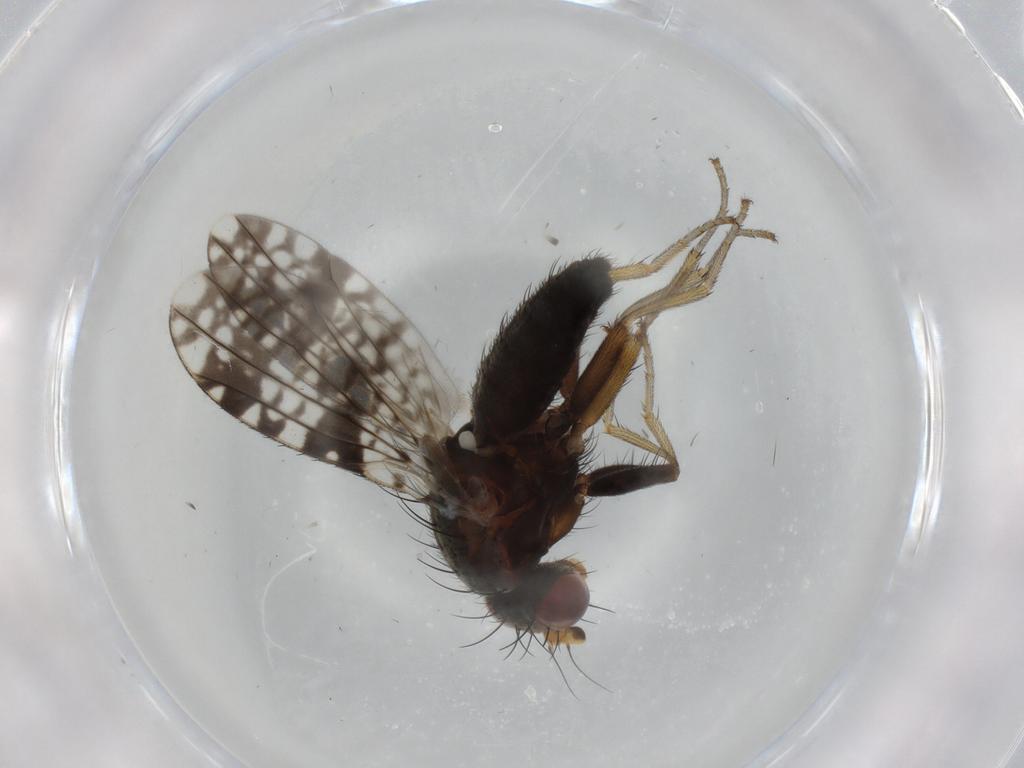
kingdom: Animalia
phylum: Arthropoda
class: Insecta
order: Diptera
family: Tephritidae
